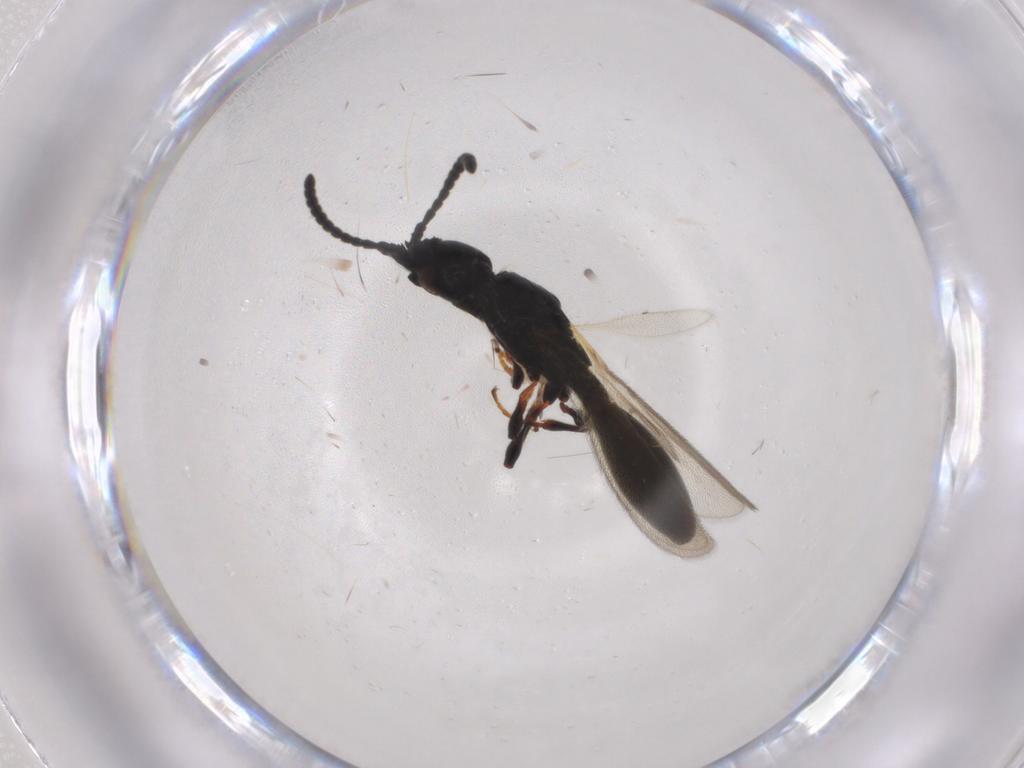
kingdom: Animalia
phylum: Arthropoda
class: Insecta
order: Hymenoptera
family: Diapriidae
